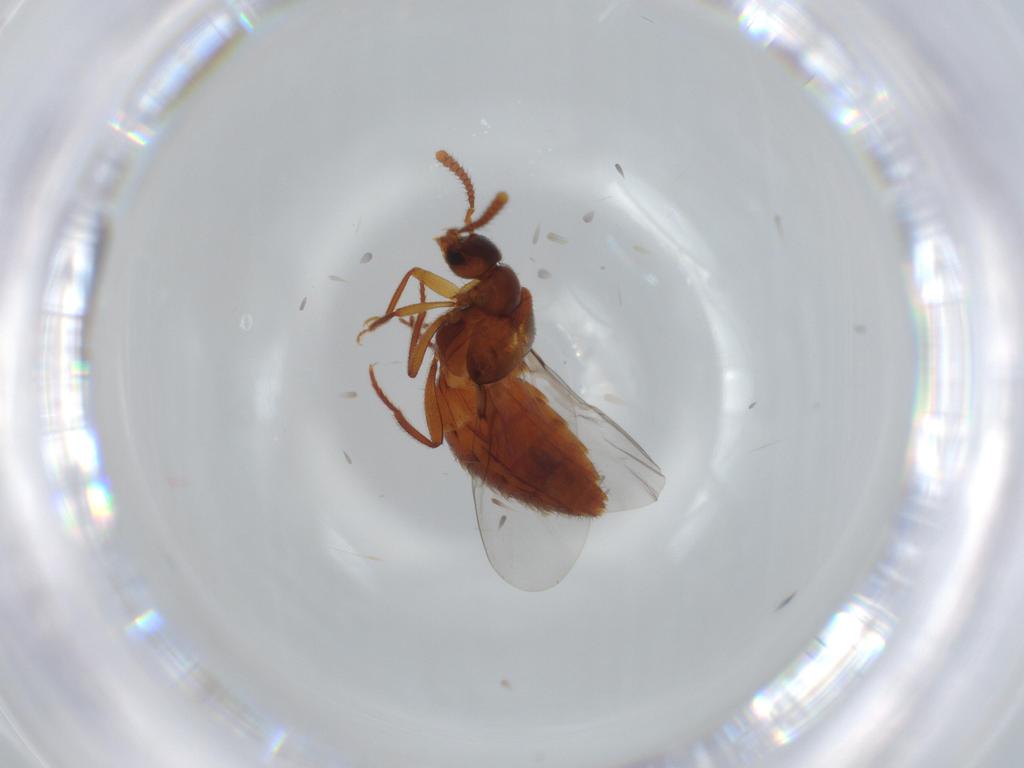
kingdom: Animalia
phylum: Arthropoda
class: Insecta
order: Coleoptera
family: Staphylinidae
